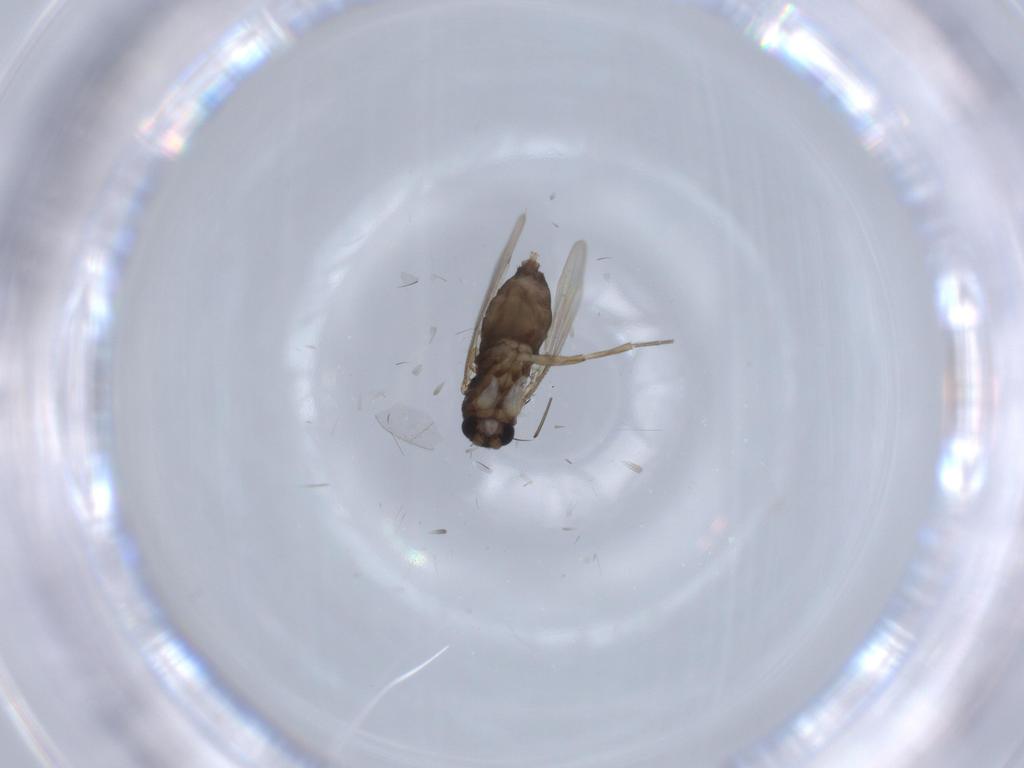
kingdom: Animalia
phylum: Arthropoda
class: Insecta
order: Diptera
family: Phoridae
